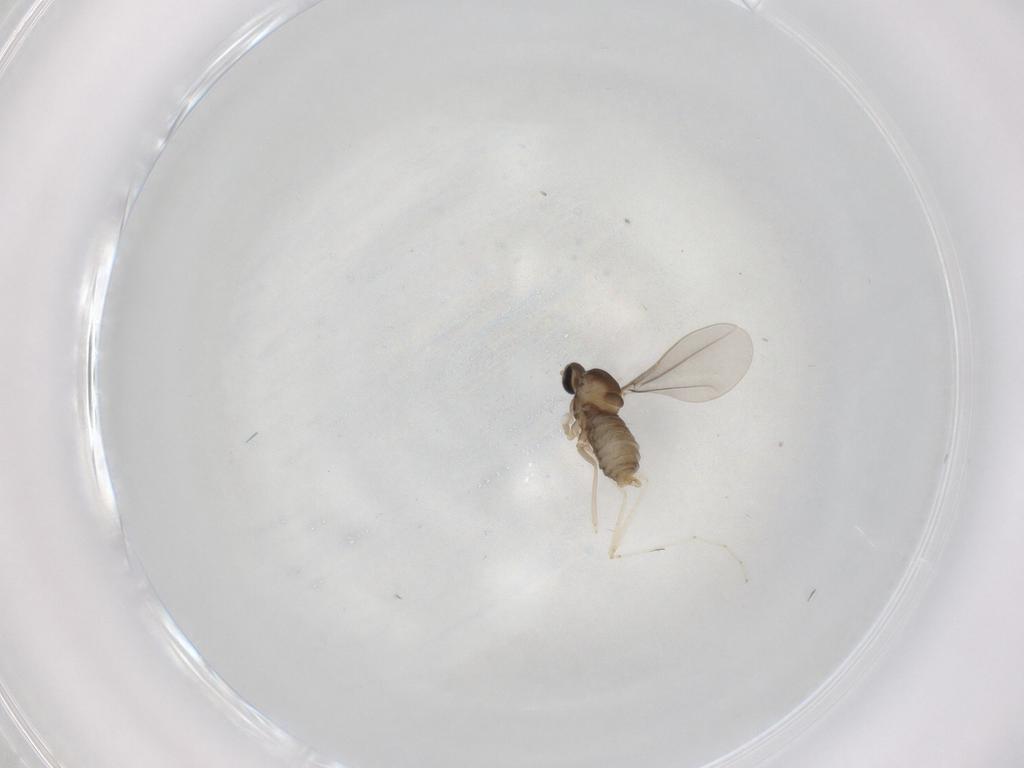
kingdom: Animalia
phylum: Arthropoda
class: Insecta
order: Diptera
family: Cecidomyiidae
